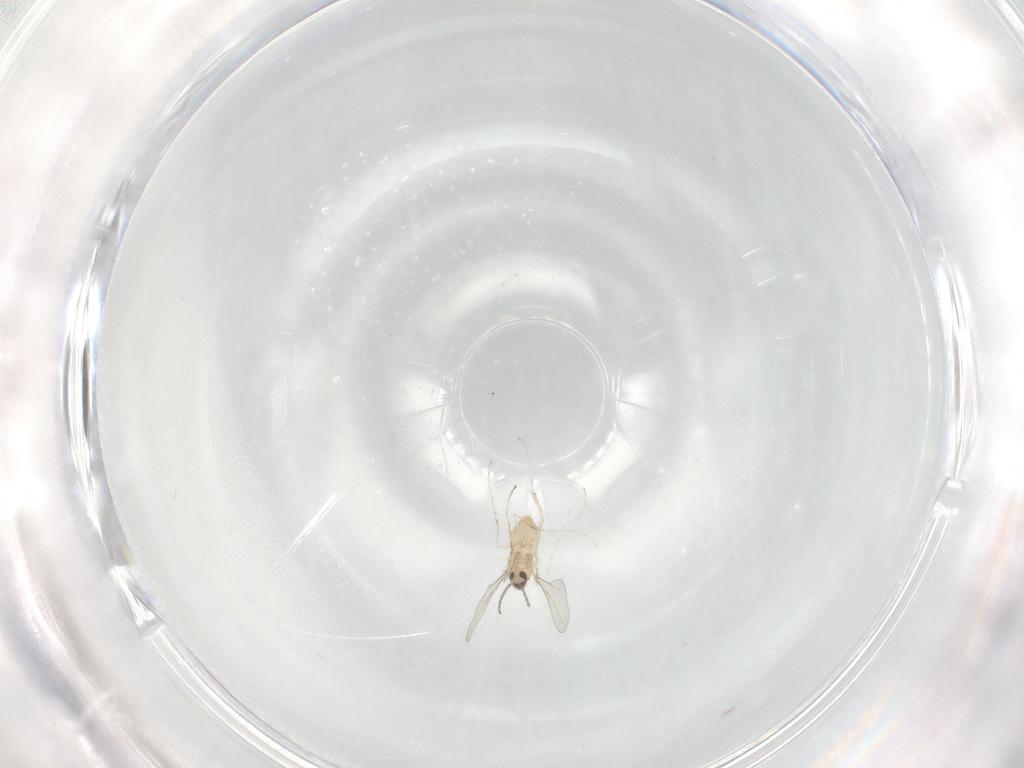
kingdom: Animalia
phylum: Arthropoda
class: Insecta
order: Diptera
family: Cecidomyiidae
